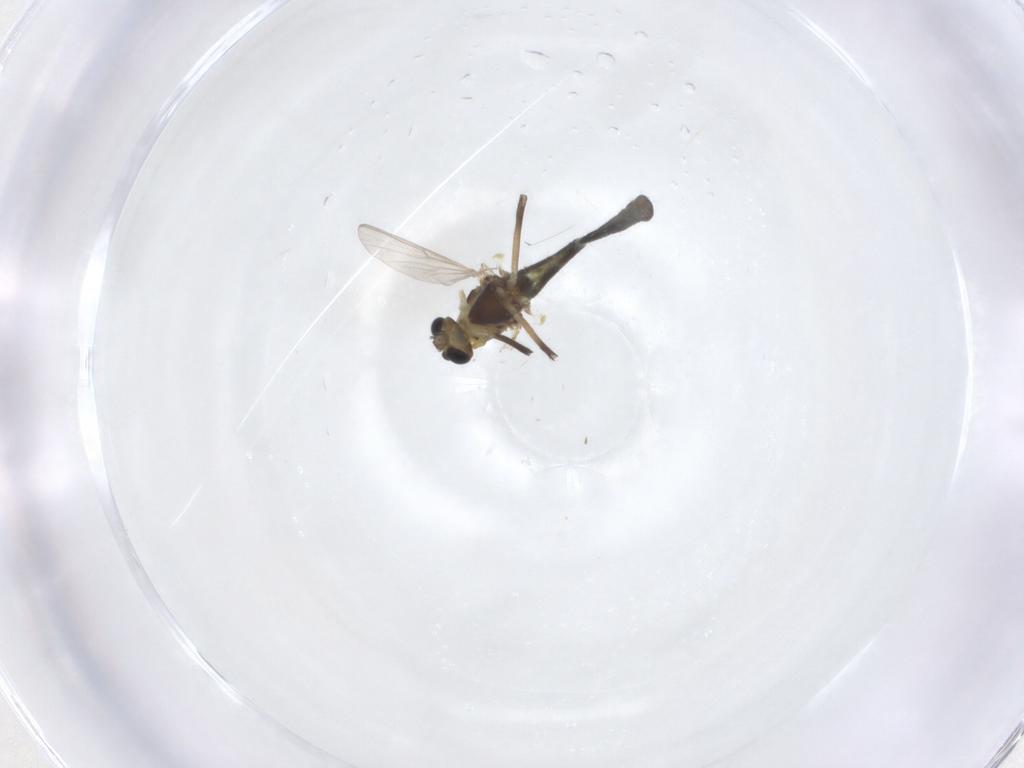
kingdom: Animalia
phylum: Arthropoda
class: Insecta
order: Diptera
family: Chironomidae
